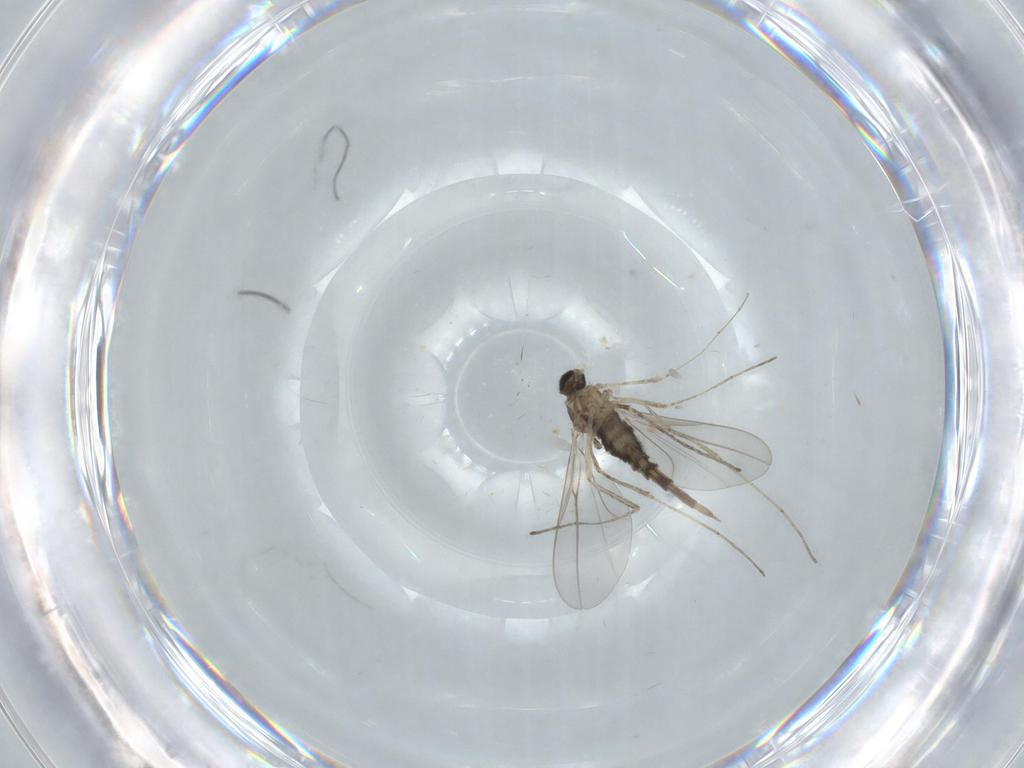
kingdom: Animalia
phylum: Arthropoda
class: Insecta
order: Diptera
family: Cecidomyiidae
